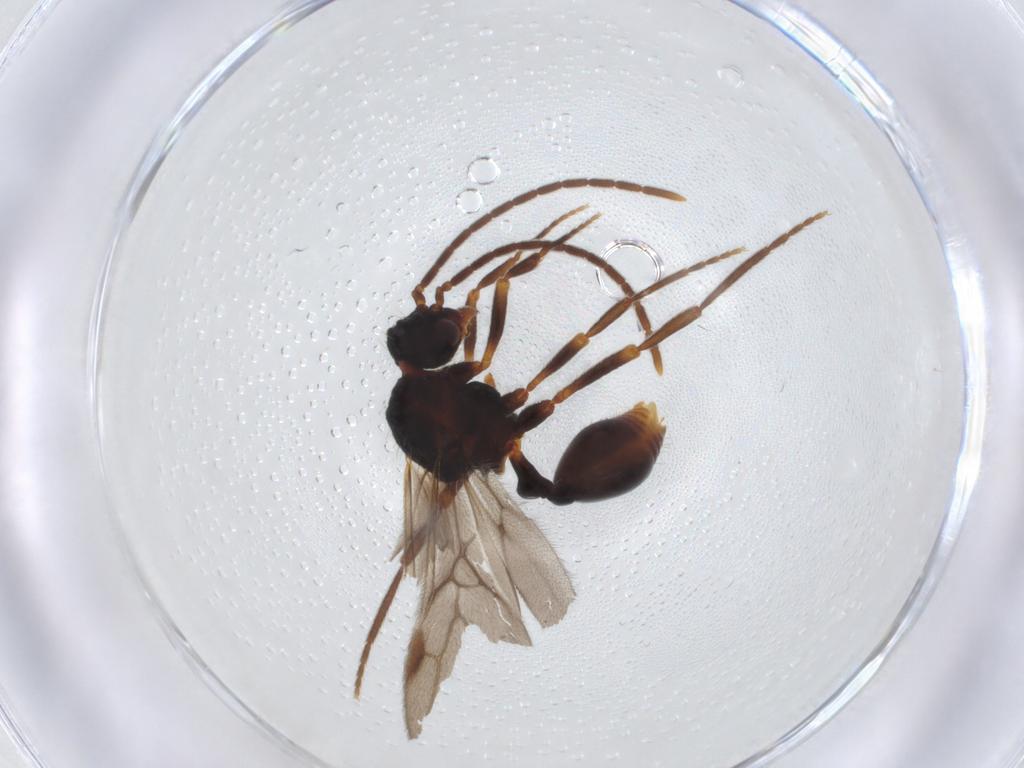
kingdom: Animalia
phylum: Arthropoda
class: Insecta
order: Hymenoptera
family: Formicidae
